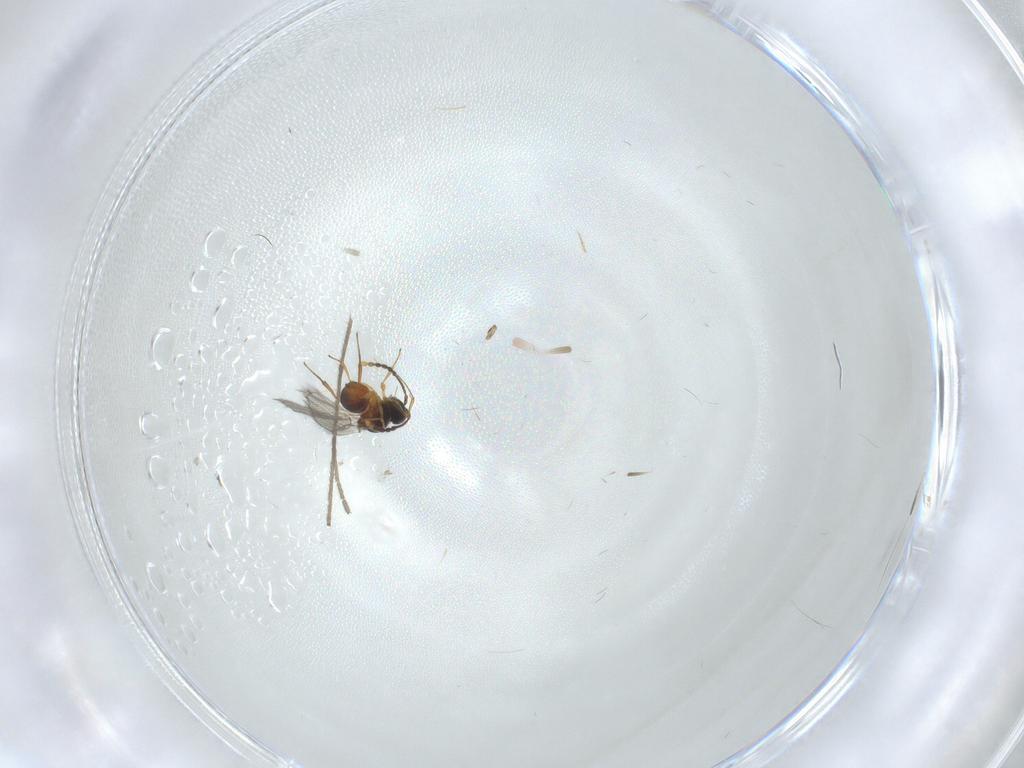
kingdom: Animalia
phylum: Arthropoda
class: Insecta
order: Hymenoptera
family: Figitidae
